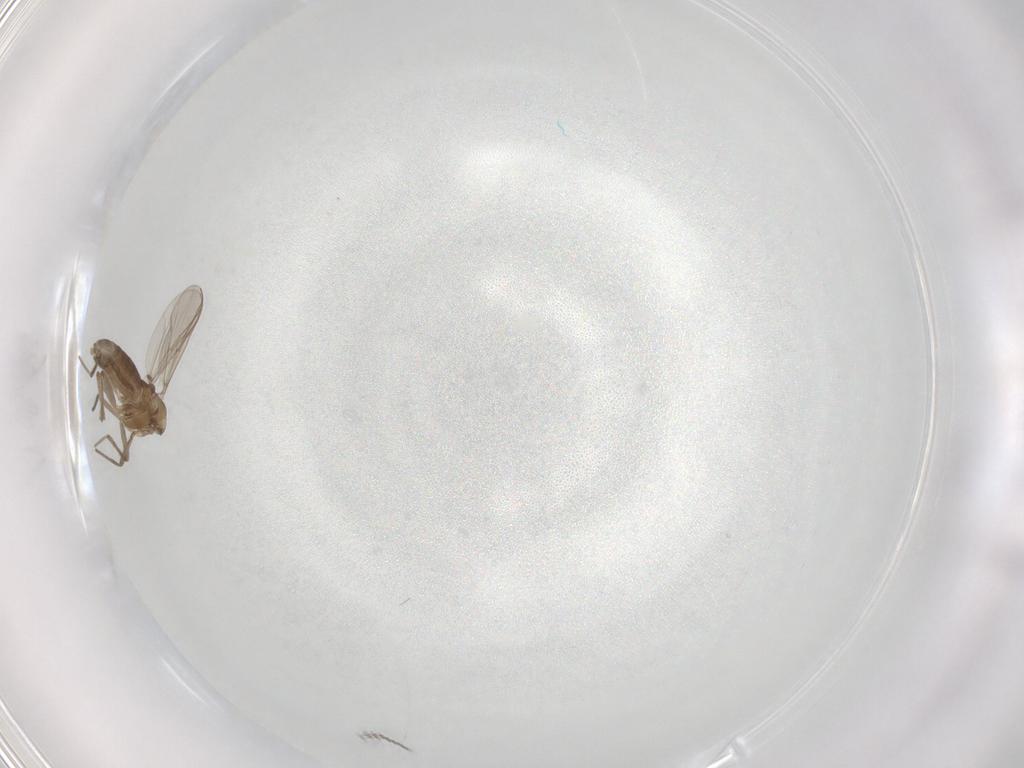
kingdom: Animalia
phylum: Arthropoda
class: Insecta
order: Diptera
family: Chironomidae
